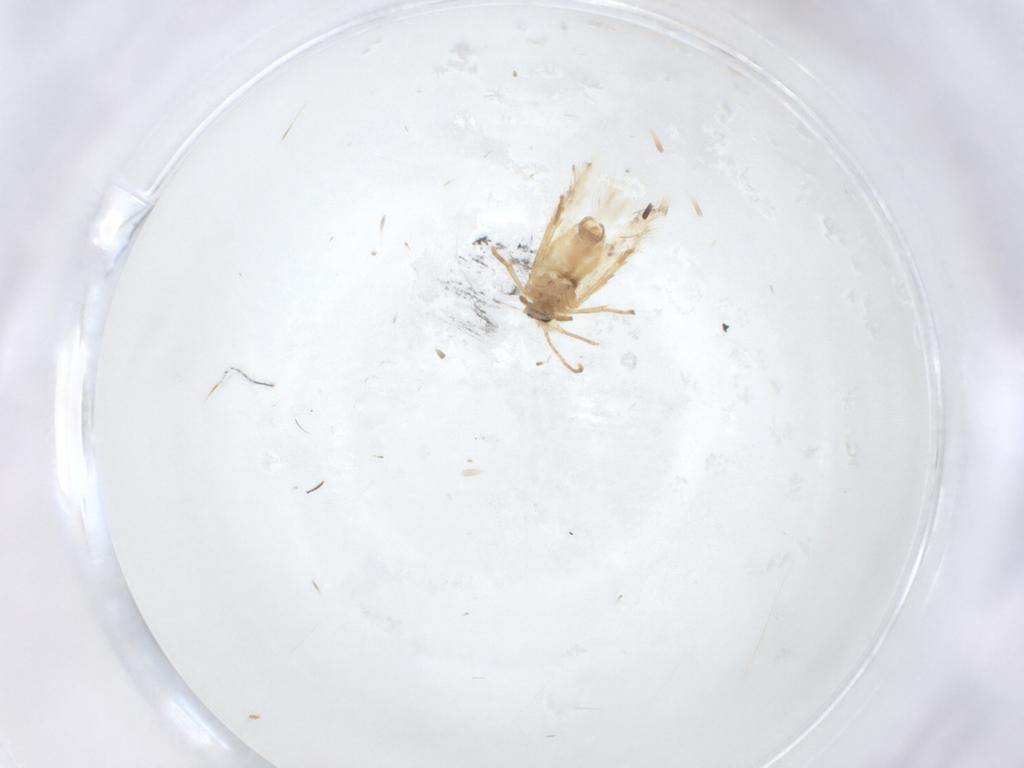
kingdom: Animalia
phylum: Arthropoda
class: Insecta
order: Lepidoptera
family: Nepticulidae
